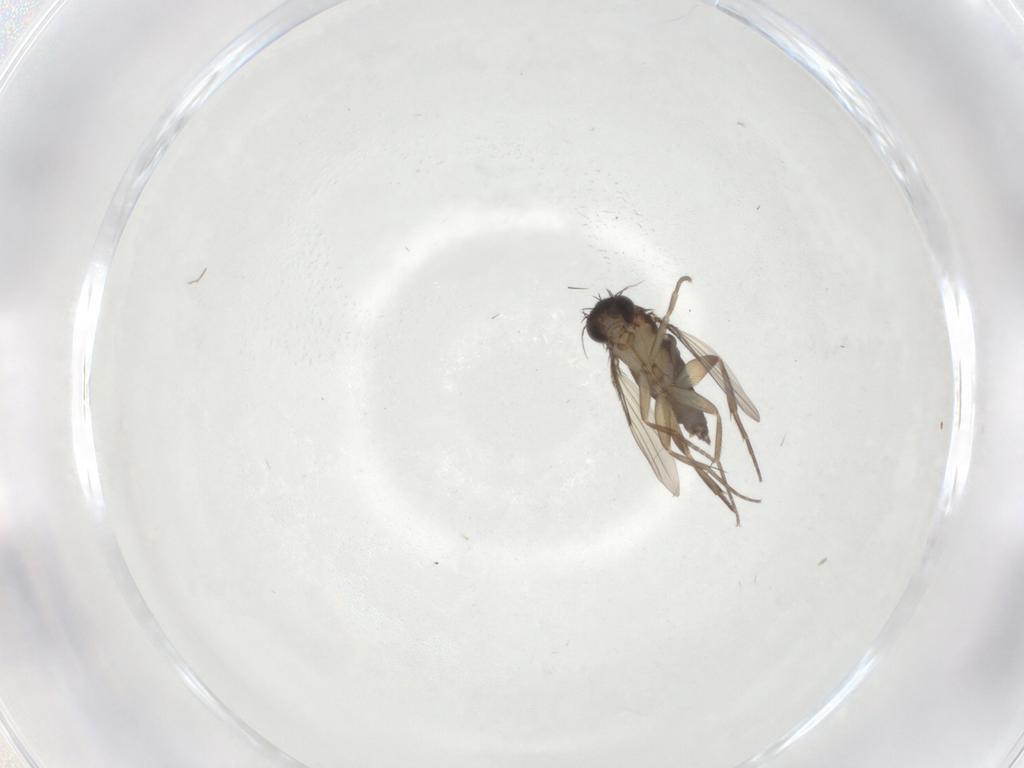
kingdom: Animalia
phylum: Arthropoda
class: Insecta
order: Diptera
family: Phoridae
